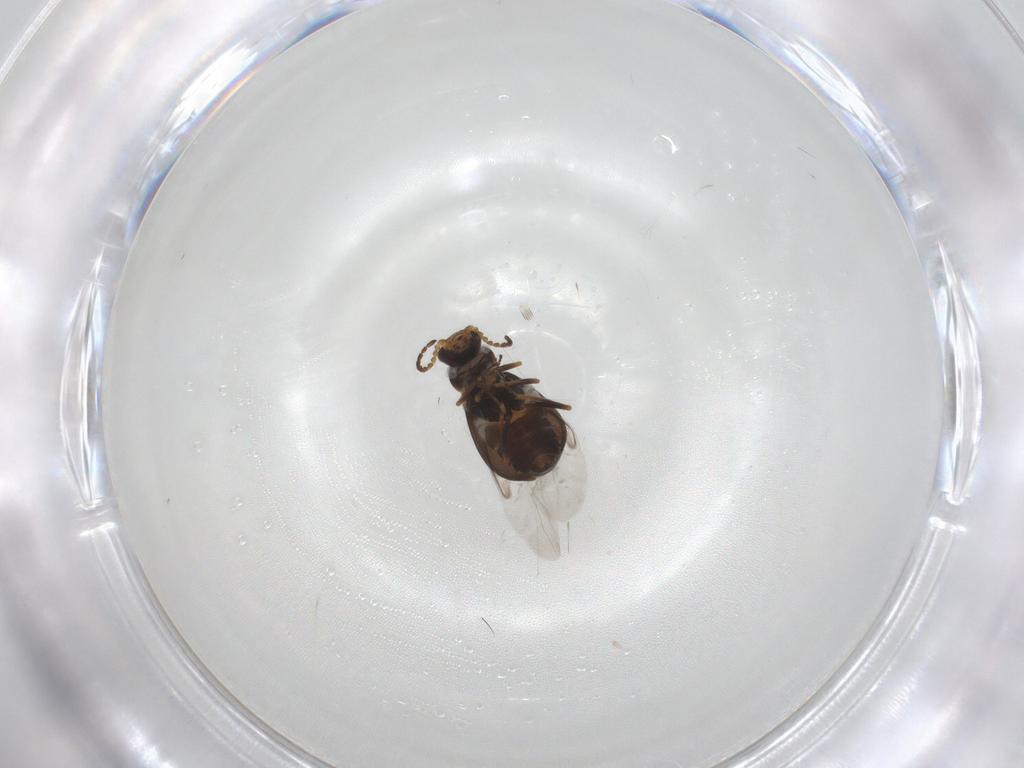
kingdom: Animalia
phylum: Arthropoda
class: Insecta
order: Coleoptera
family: Melyridae
